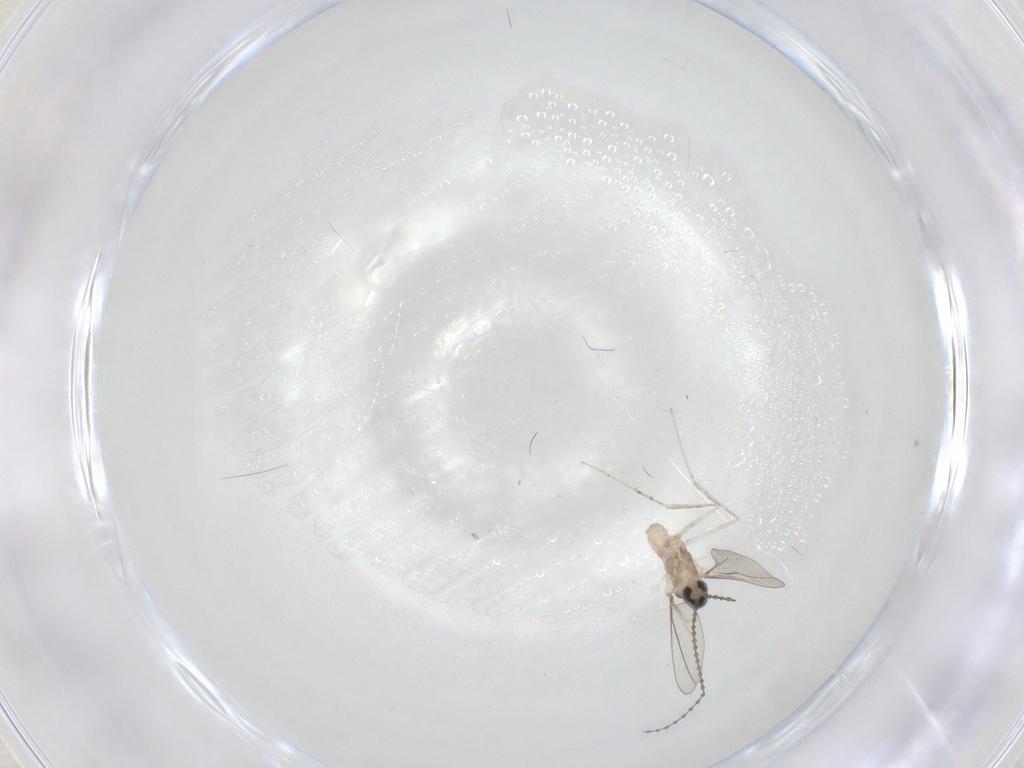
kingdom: Animalia
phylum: Arthropoda
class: Insecta
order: Diptera
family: Cecidomyiidae
